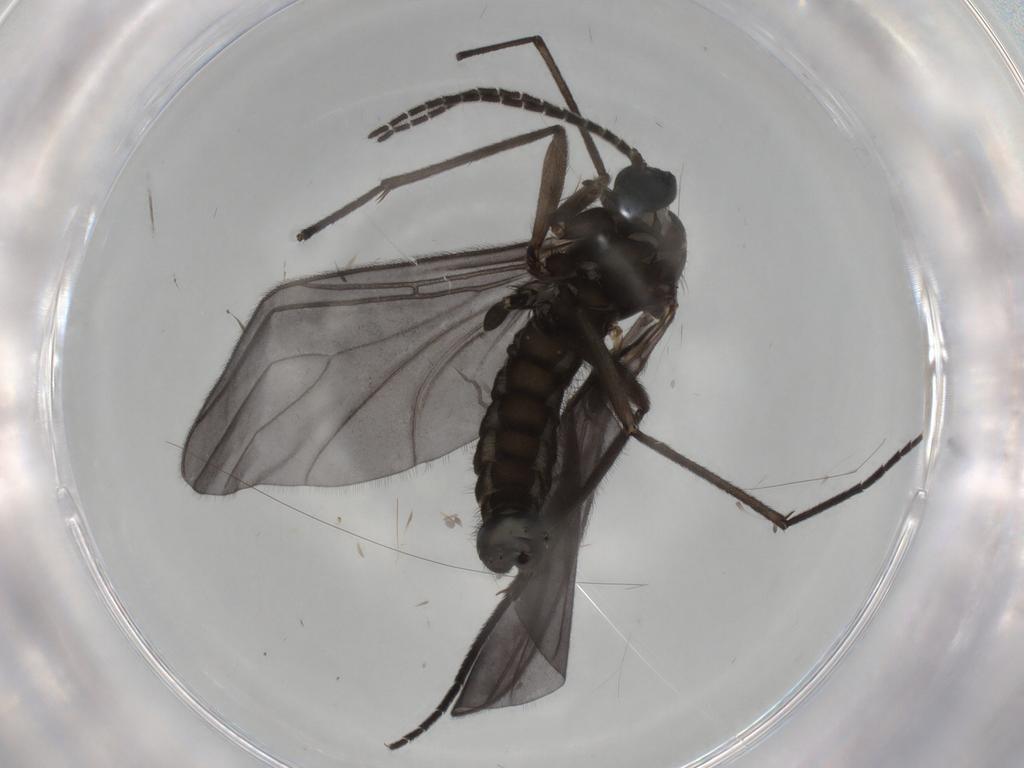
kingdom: Animalia
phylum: Arthropoda
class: Insecta
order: Diptera
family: Sciaridae
